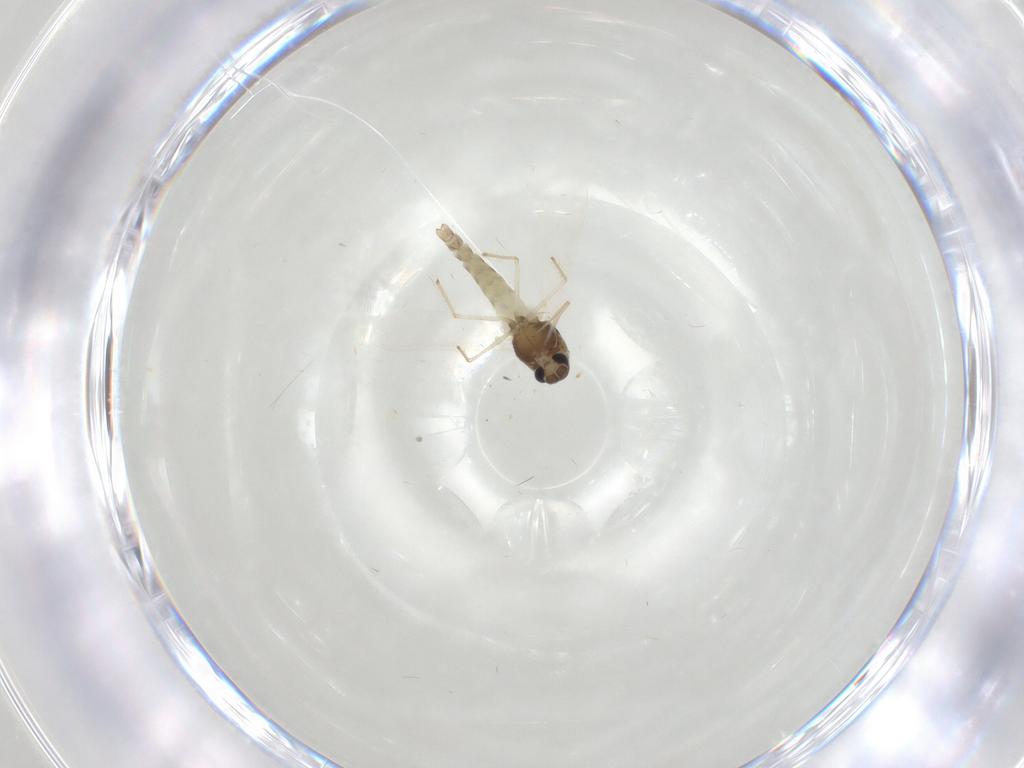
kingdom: Animalia
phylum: Arthropoda
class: Insecta
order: Diptera
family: Chironomidae
